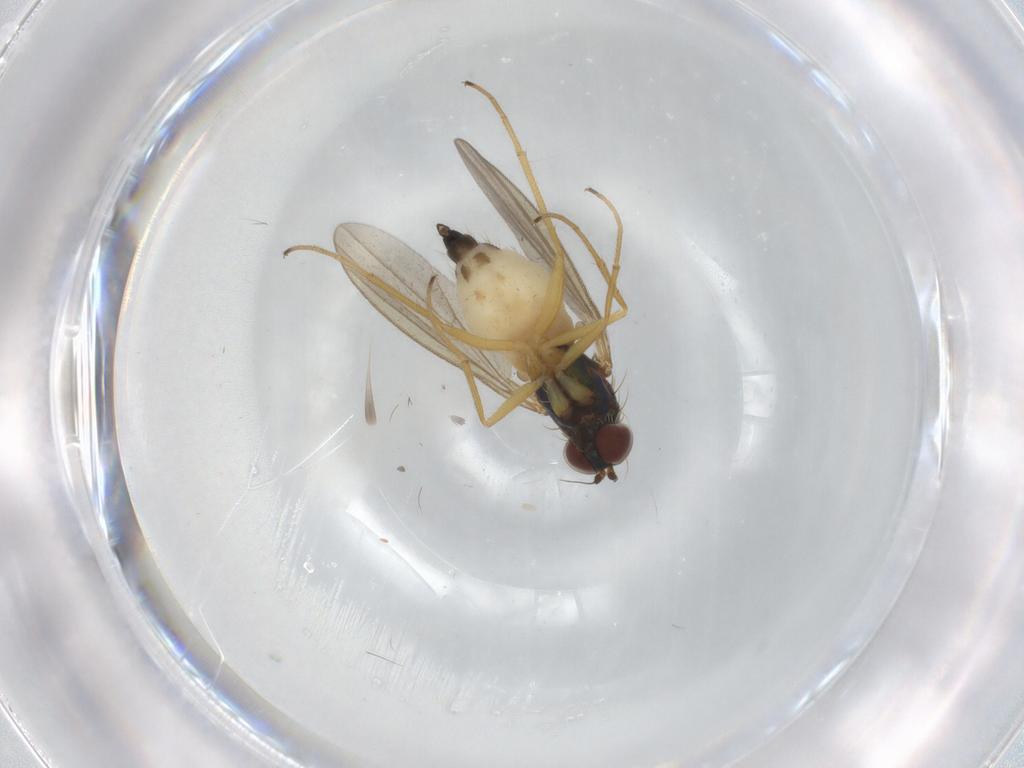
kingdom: Animalia
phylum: Arthropoda
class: Insecta
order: Diptera
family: Dolichopodidae
